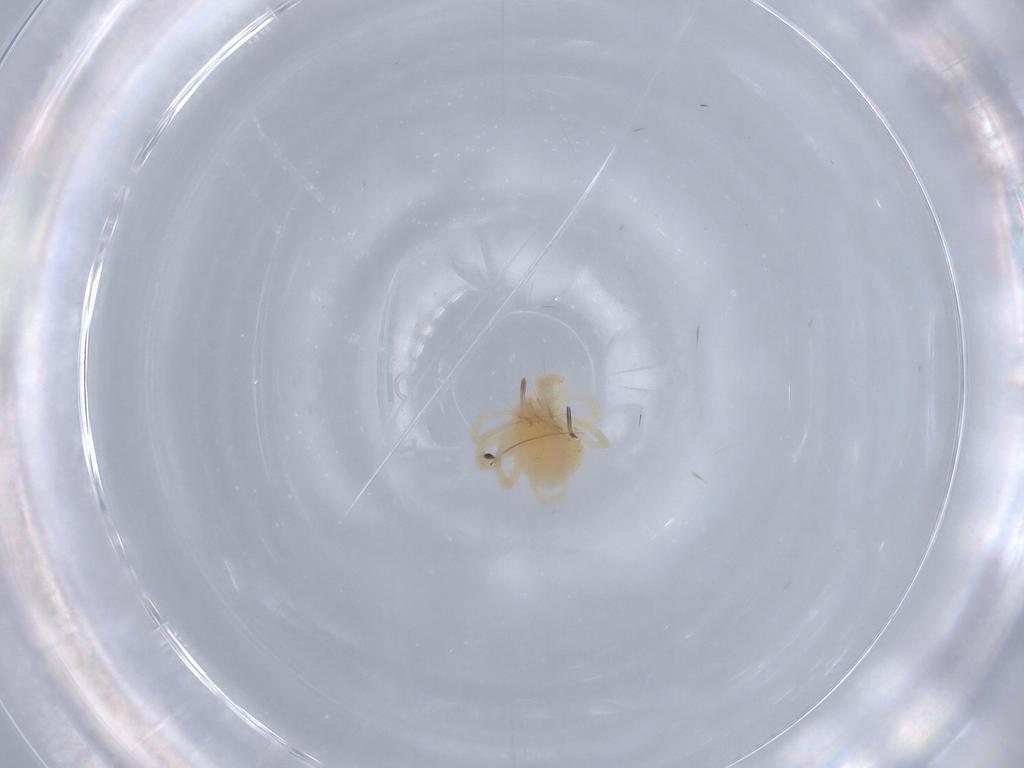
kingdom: Animalia
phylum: Arthropoda
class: Arachnida
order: Trombidiformes
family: Anystidae
